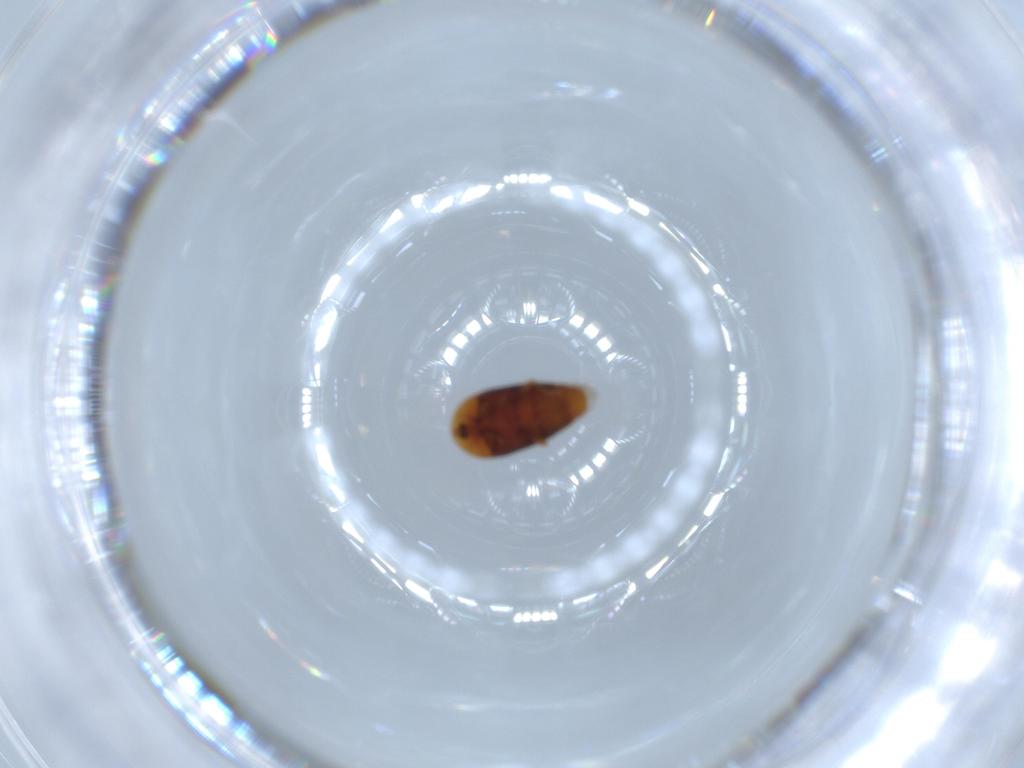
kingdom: Animalia
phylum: Arthropoda
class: Insecta
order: Coleoptera
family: Corylophidae
